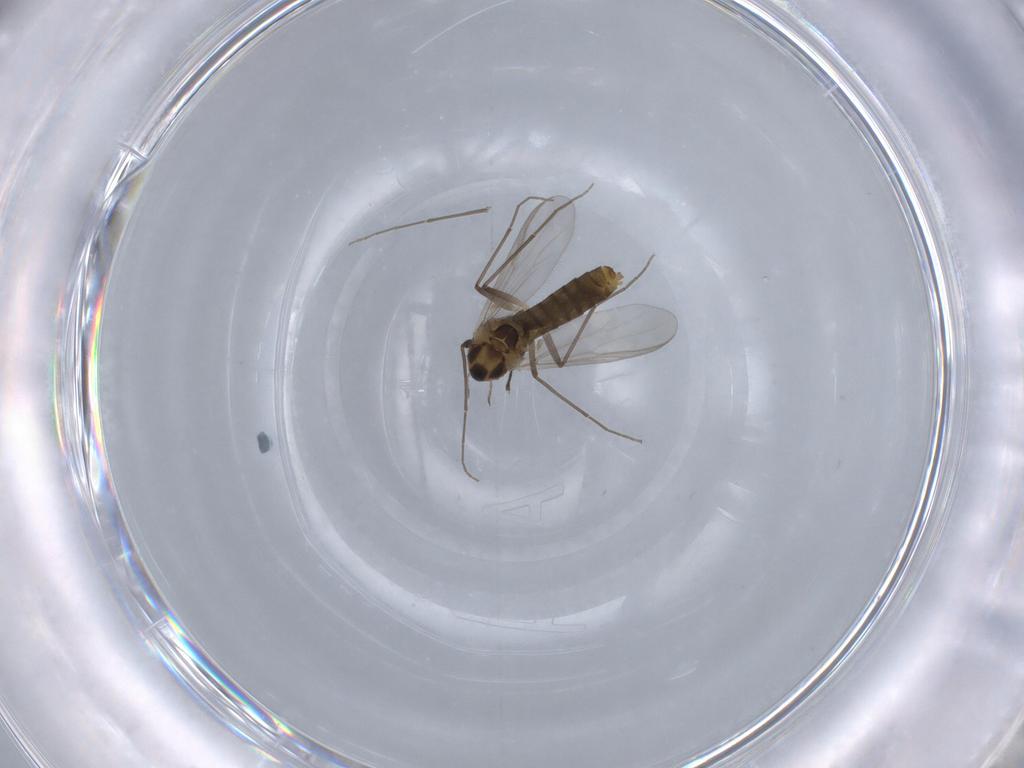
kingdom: Animalia
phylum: Arthropoda
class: Insecta
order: Diptera
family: Chironomidae
